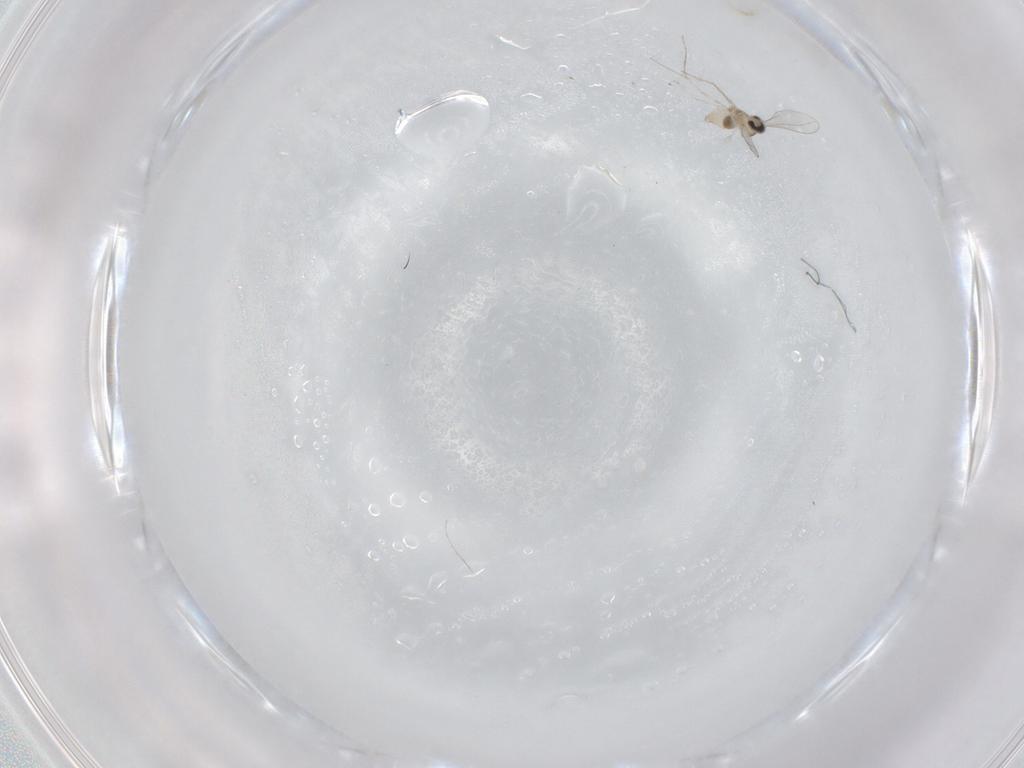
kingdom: Animalia
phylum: Arthropoda
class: Insecta
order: Diptera
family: Cecidomyiidae
